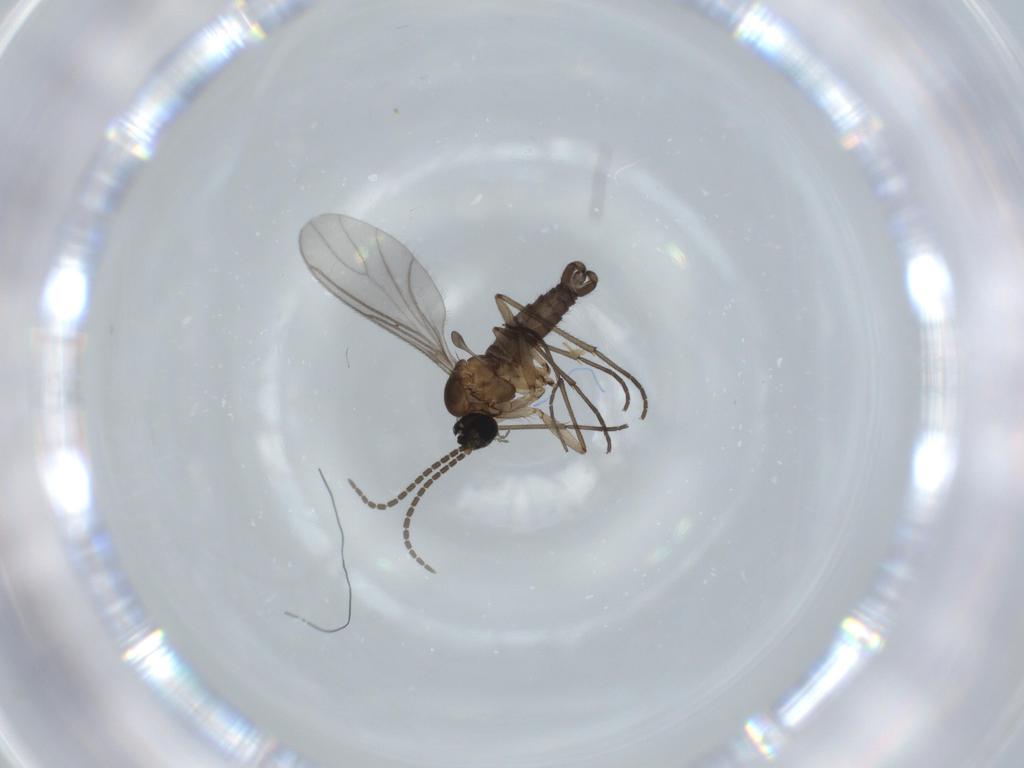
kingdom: Animalia
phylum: Arthropoda
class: Insecta
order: Diptera
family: Sciaridae
